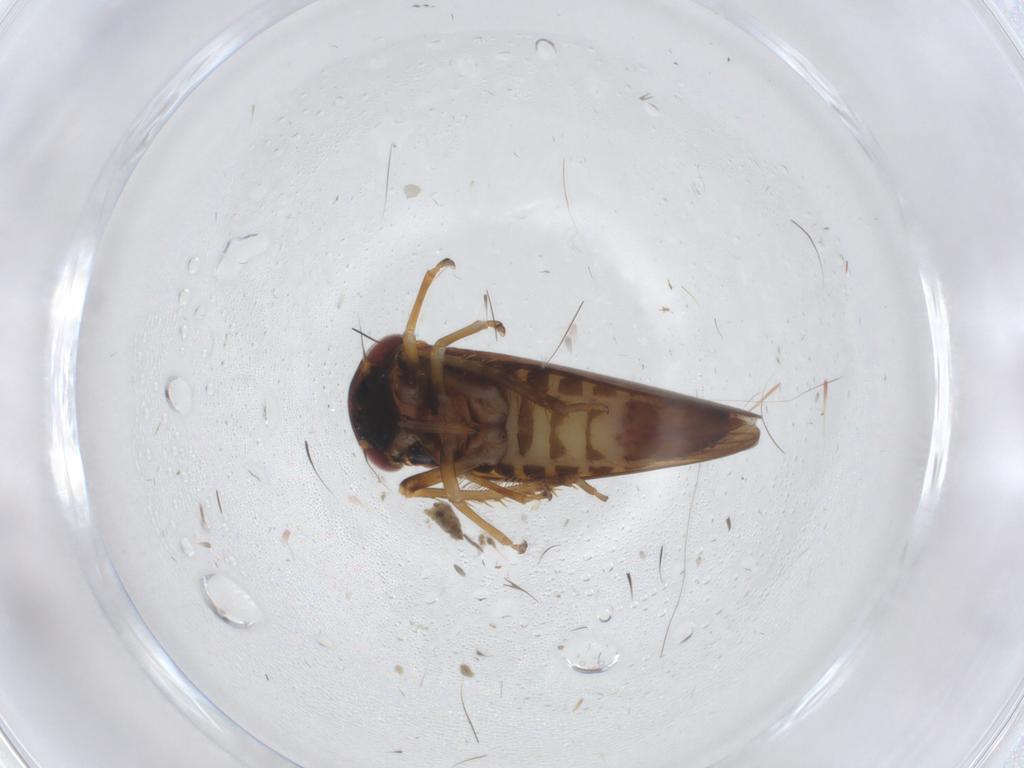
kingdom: Animalia
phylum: Arthropoda
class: Insecta
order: Hemiptera
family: Cicadellidae
